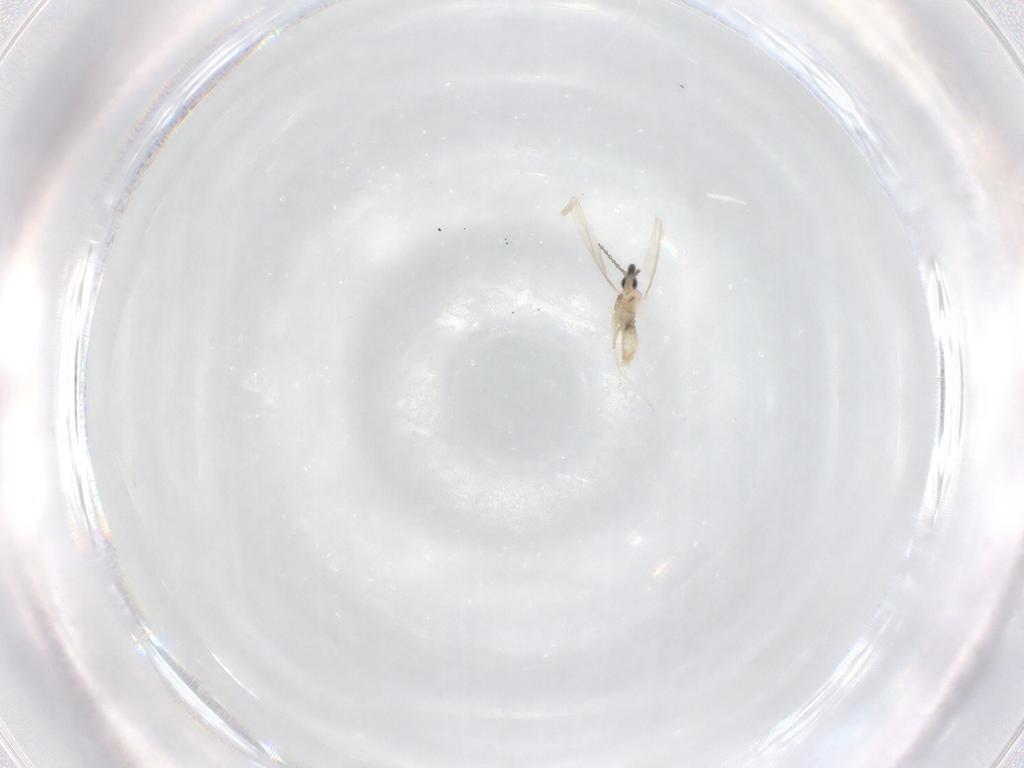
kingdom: Animalia
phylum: Arthropoda
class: Insecta
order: Diptera
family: Cecidomyiidae
